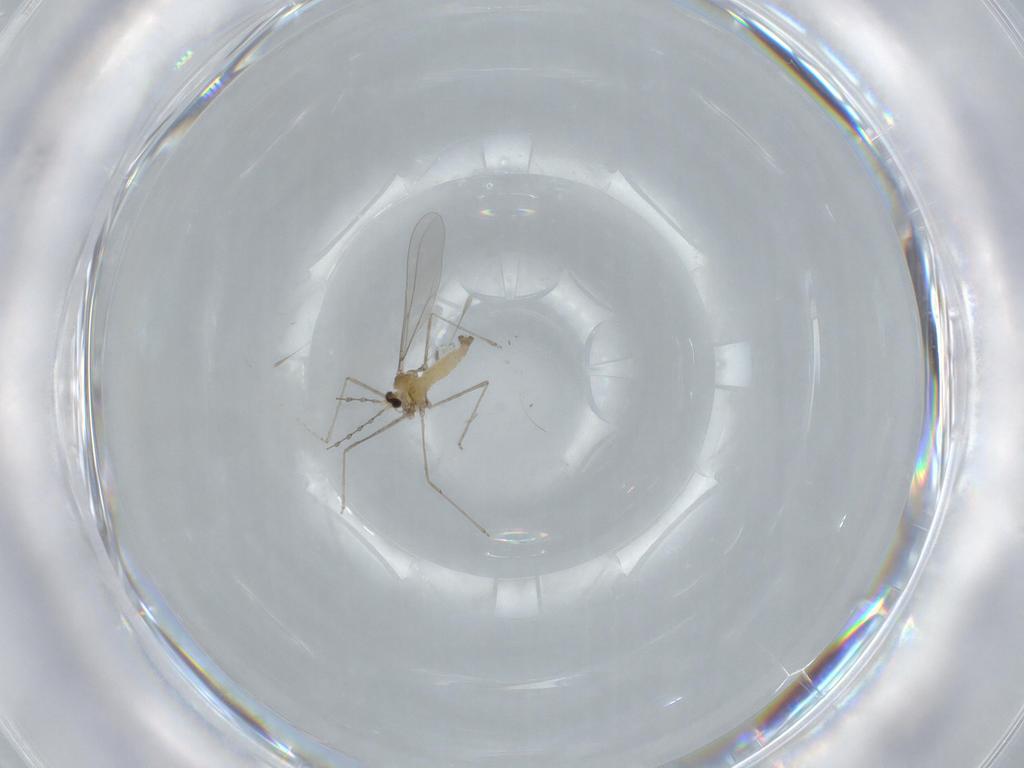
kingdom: Animalia
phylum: Arthropoda
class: Insecta
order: Diptera
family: Cecidomyiidae
